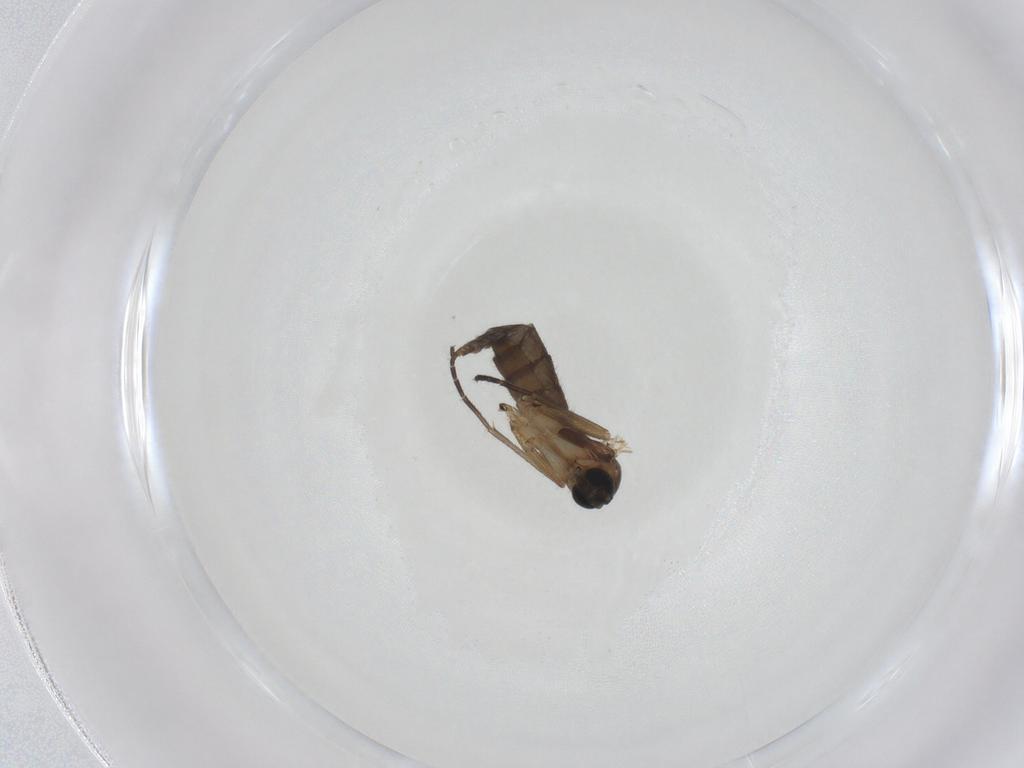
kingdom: Animalia
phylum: Arthropoda
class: Insecta
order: Diptera
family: Sciaridae
